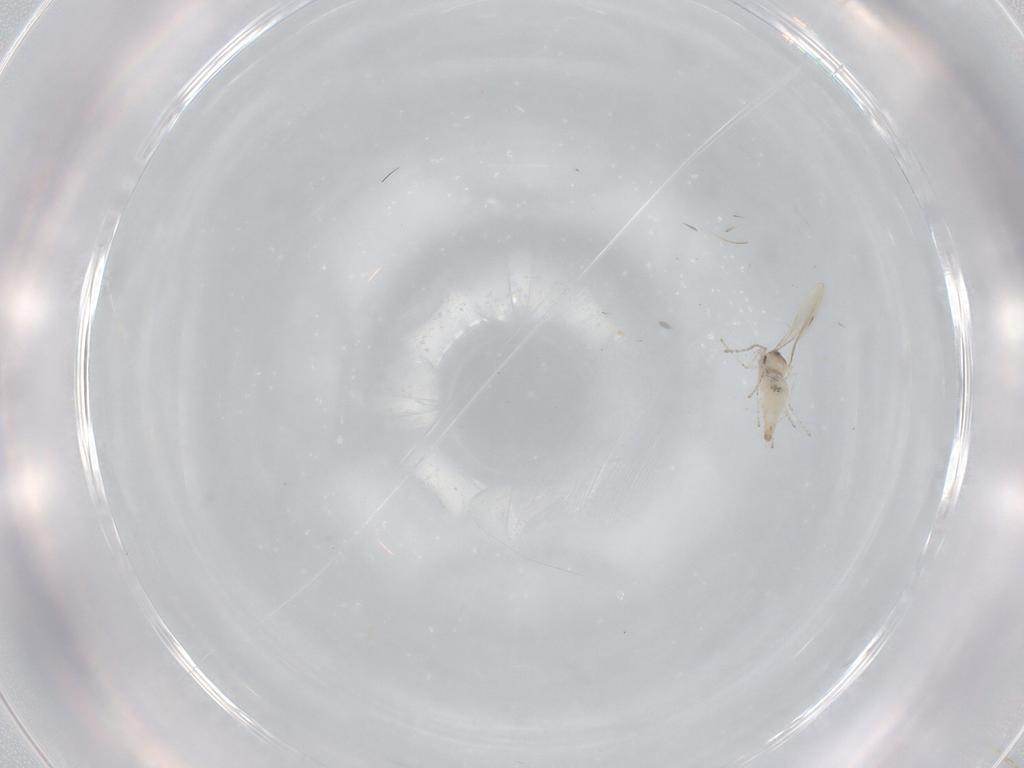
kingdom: Animalia
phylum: Arthropoda
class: Insecta
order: Diptera
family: Cecidomyiidae
